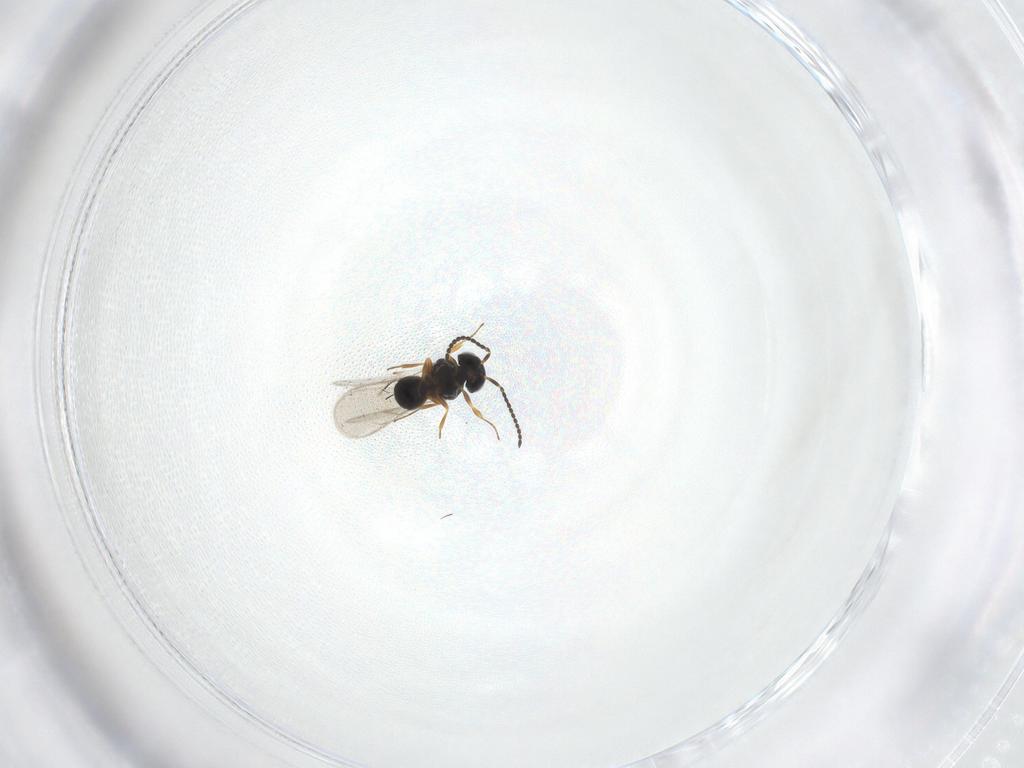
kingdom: Animalia
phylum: Arthropoda
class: Insecta
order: Hymenoptera
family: Scelionidae
